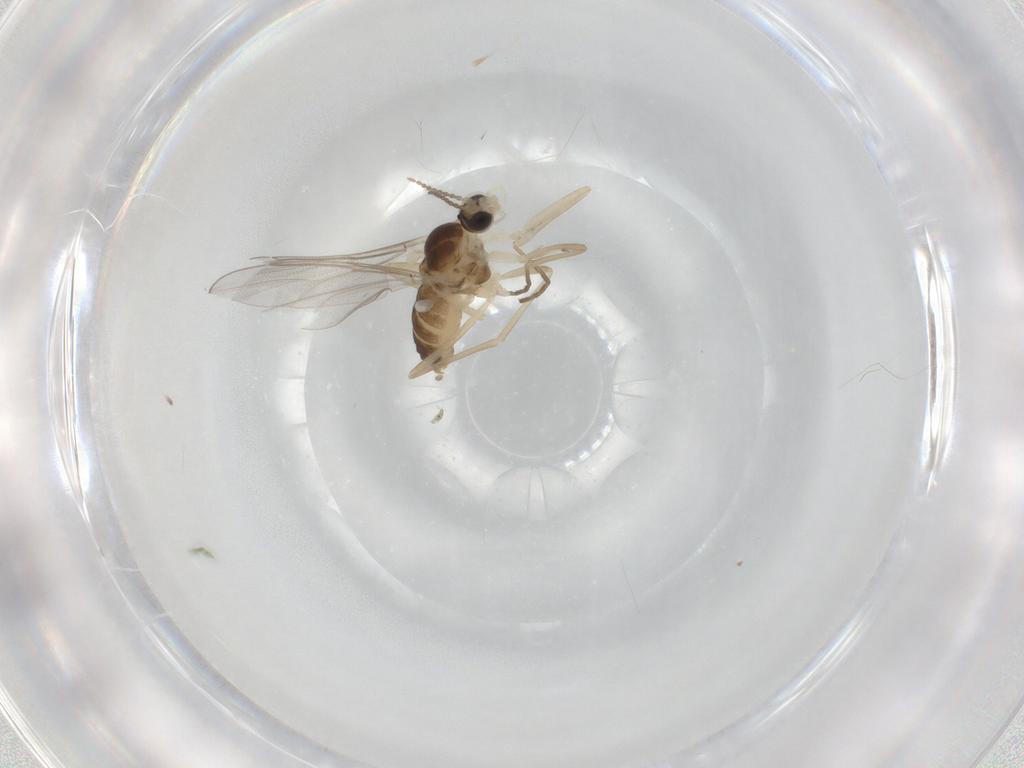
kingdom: Animalia
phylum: Arthropoda
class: Insecta
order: Diptera
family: Cecidomyiidae
